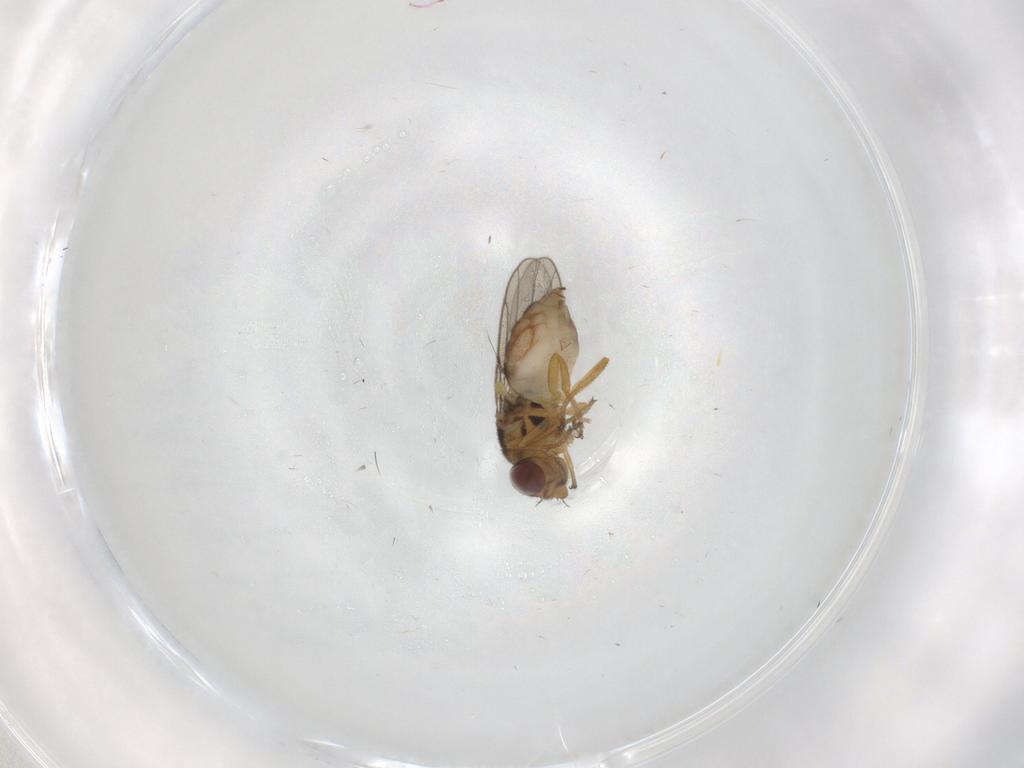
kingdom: Animalia
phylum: Arthropoda
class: Insecta
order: Diptera
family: Chloropidae
